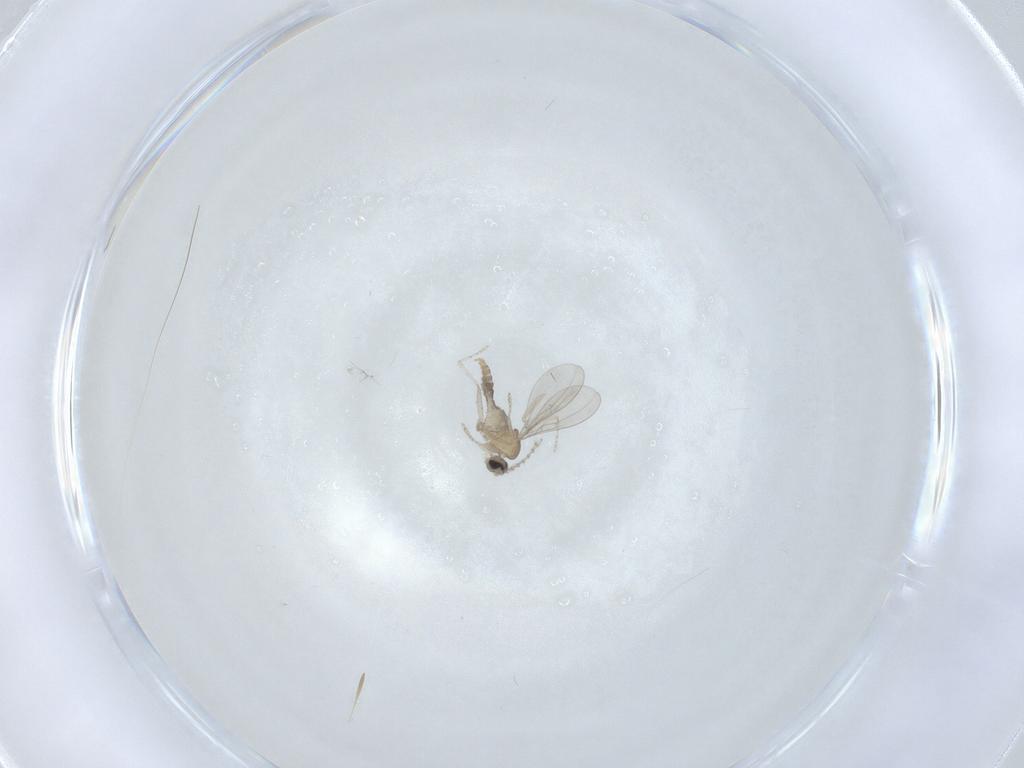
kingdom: Animalia
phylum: Arthropoda
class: Insecta
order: Diptera
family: Cecidomyiidae
